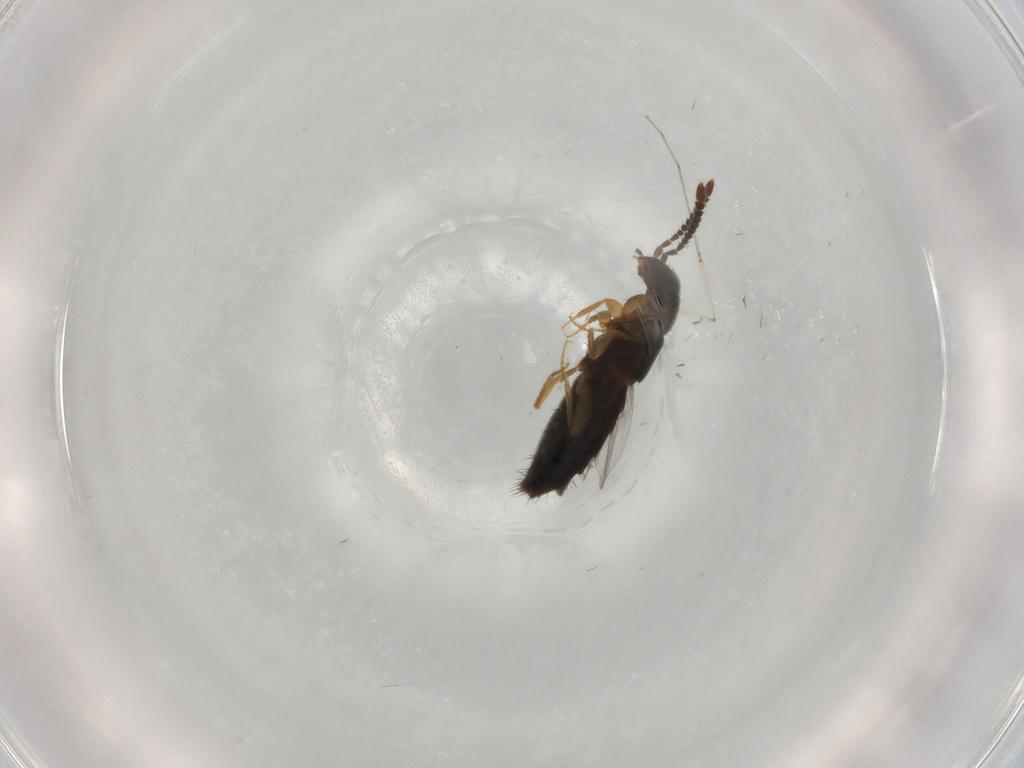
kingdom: Animalia
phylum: Arthropoda
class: Insecta
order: Coleoptera
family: Staphylinidae
